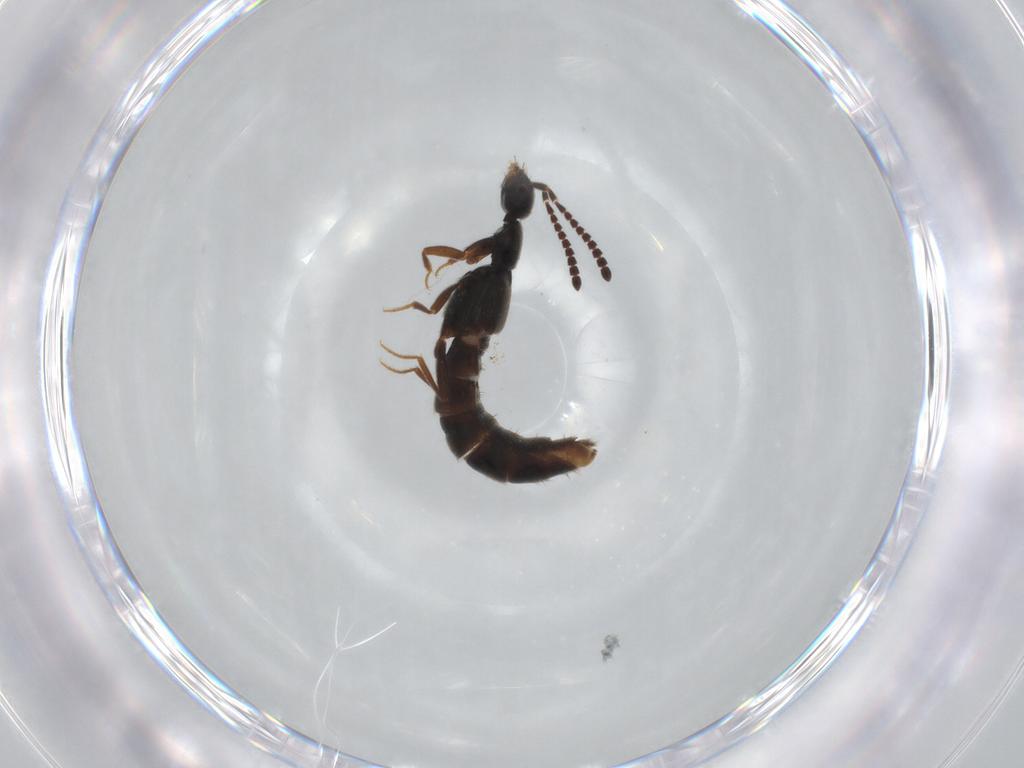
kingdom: Animalia
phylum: Arthropoda
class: Insecta
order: Coleoptera
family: Staphylinidae
